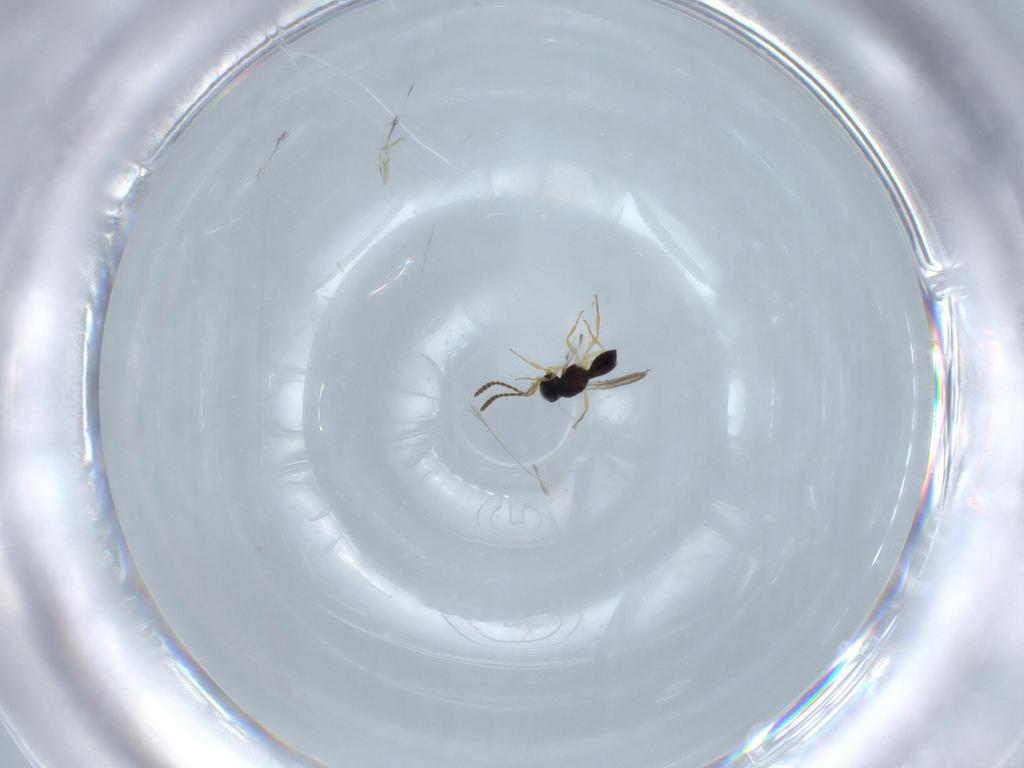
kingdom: Animalia
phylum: Arthropoda
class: Insecta
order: Hymenoptera
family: Scelionidae
